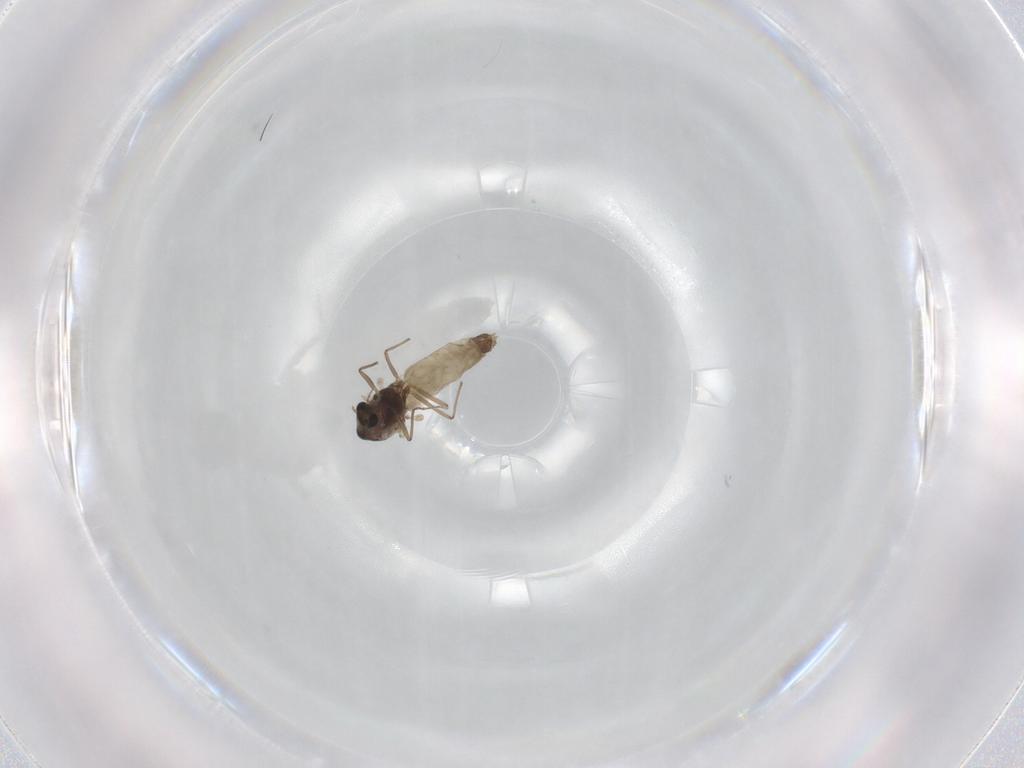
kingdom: Animalia
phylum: Arthropoda
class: Insecta
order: Diptera
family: Chironomidae
